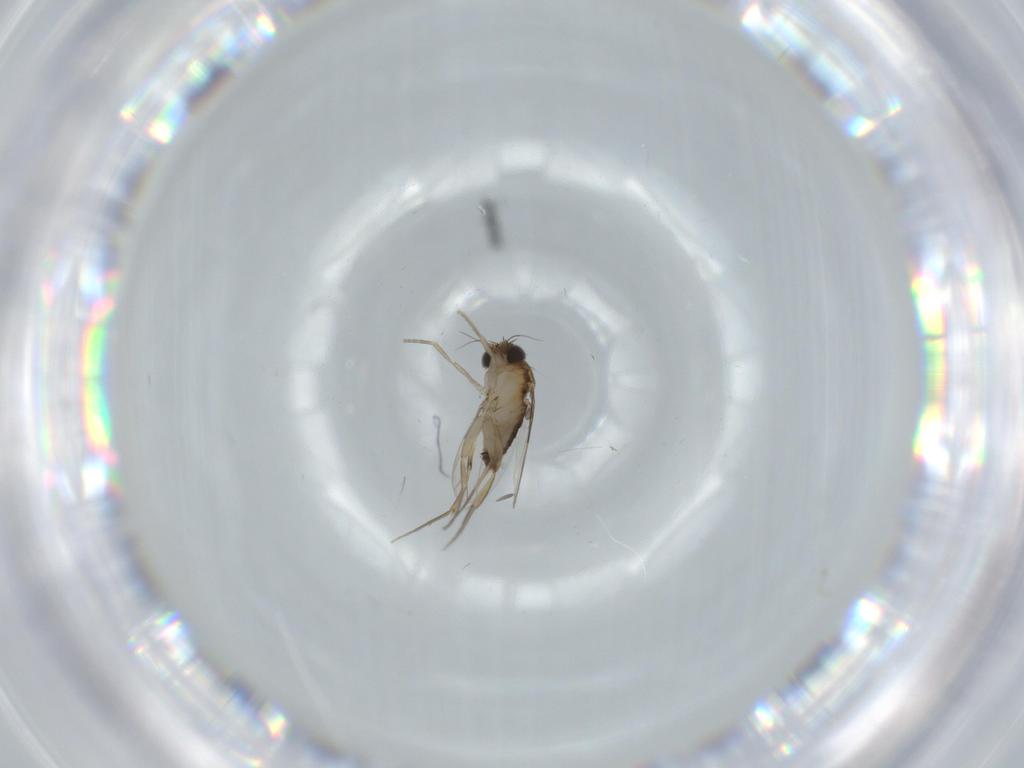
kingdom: Animalia
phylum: Arthropoda
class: Insecta
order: Diptera
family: Phoridae
